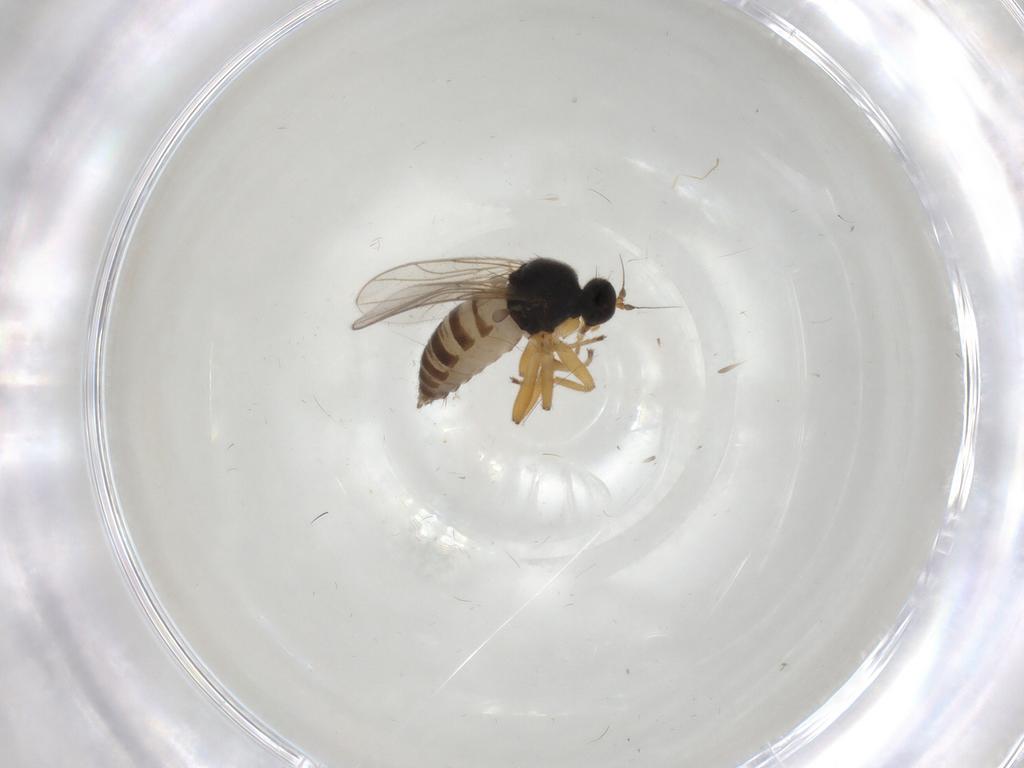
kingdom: Animalia
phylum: Arthropoda
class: Insecta
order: Diptera
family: Hybotidae
